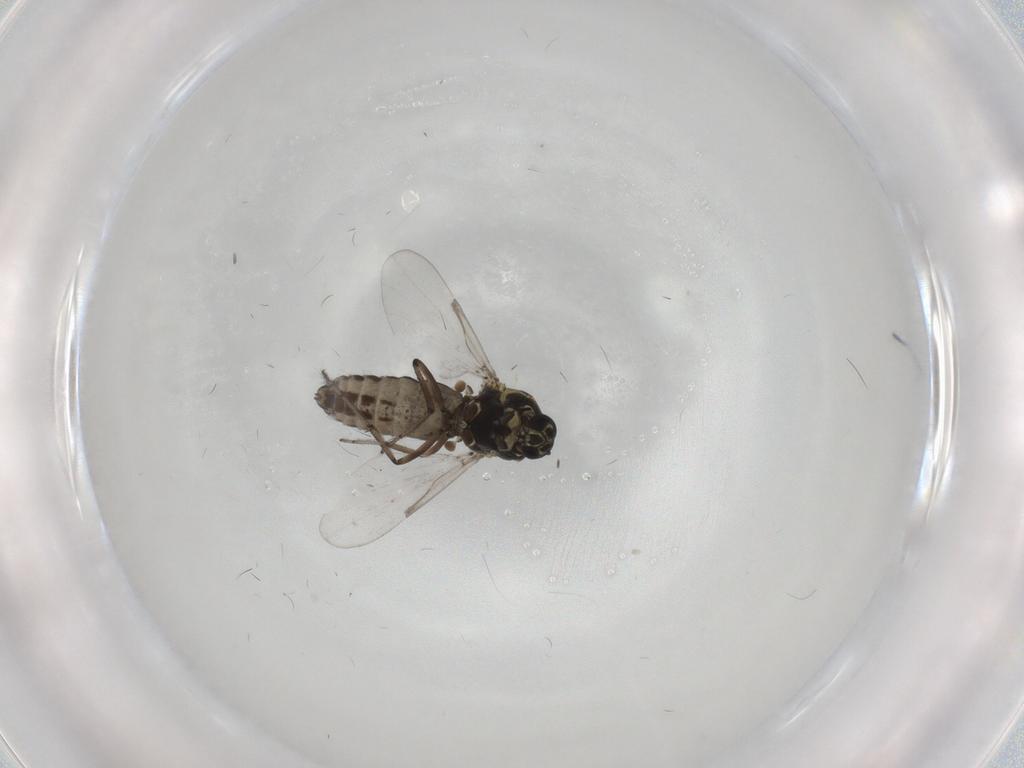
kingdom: Animalia
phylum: Arthropoda
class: Insecta
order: Diptera
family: Ceratopogonidae
